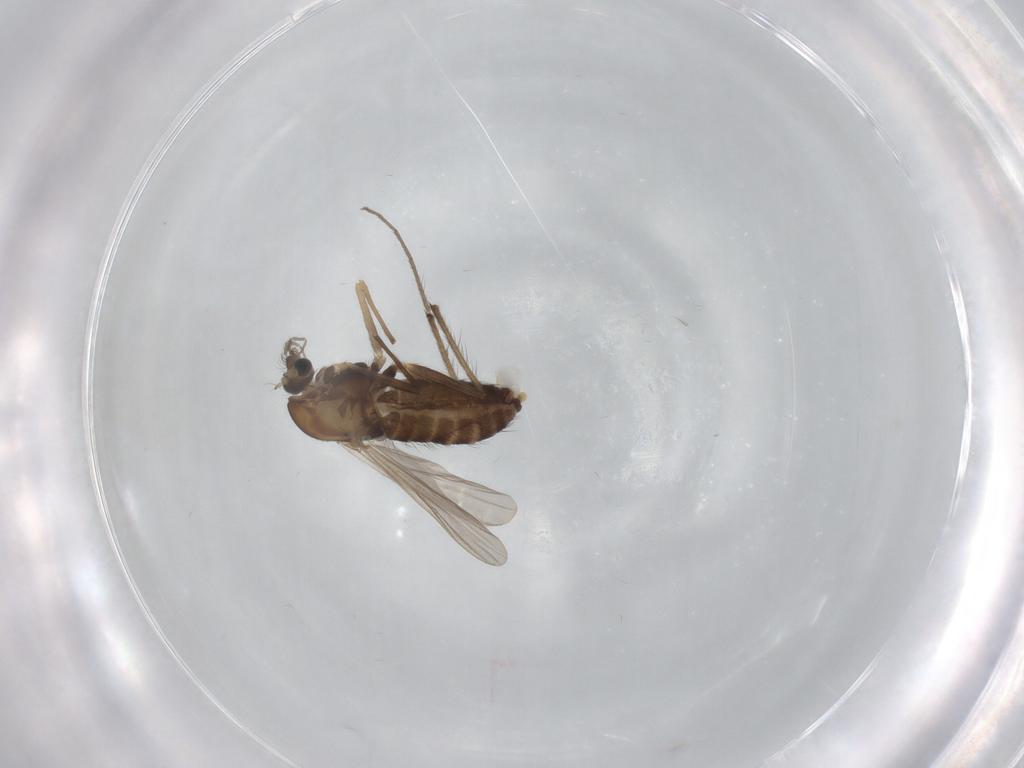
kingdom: Animalia
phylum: Arthropoda
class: Insecta
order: Diptera
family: Chironomidae
